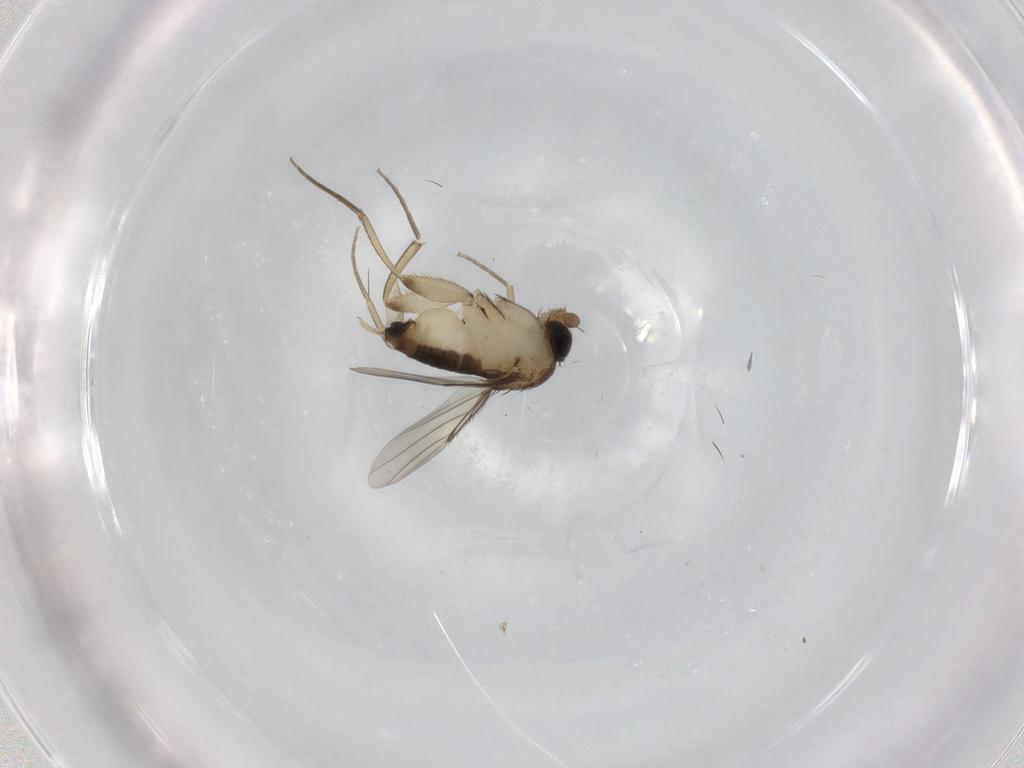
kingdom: Animalia
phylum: Arthropoda
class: Insecta
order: Diptera
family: Phoridae
